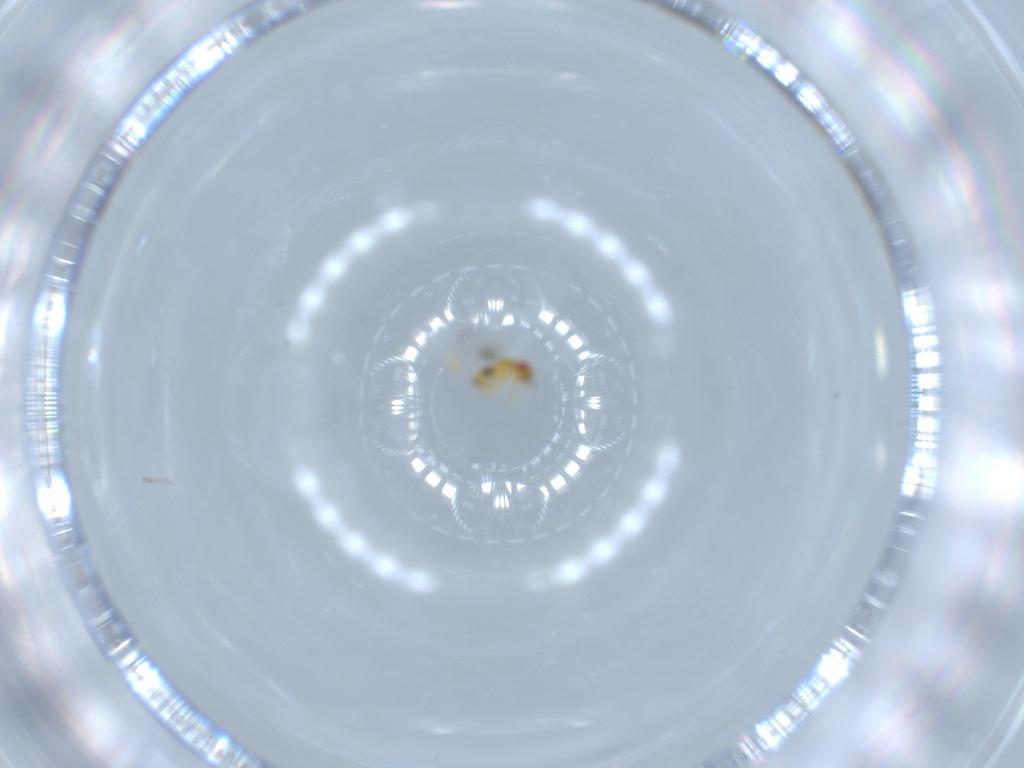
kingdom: Animalia
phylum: Arthropoda
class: Insecta
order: Hymenoptera
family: Trichogrammatidae
